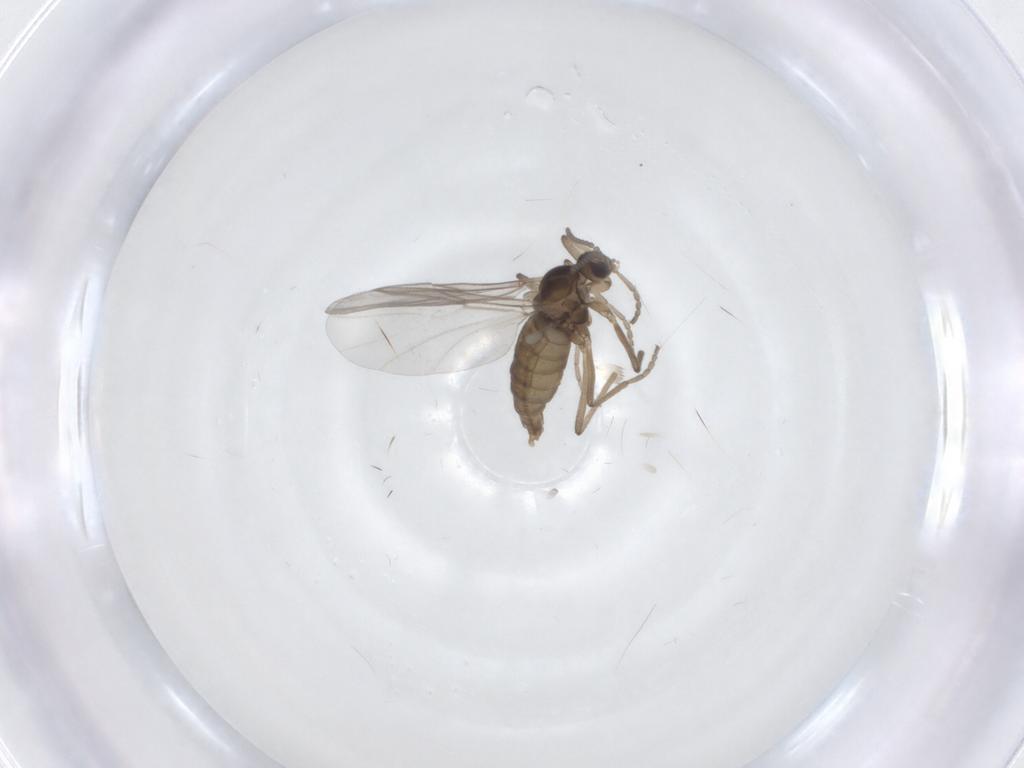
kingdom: Animalia
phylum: Arthropoda
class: Insecta
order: Diptera
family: Cecidomyiidae
